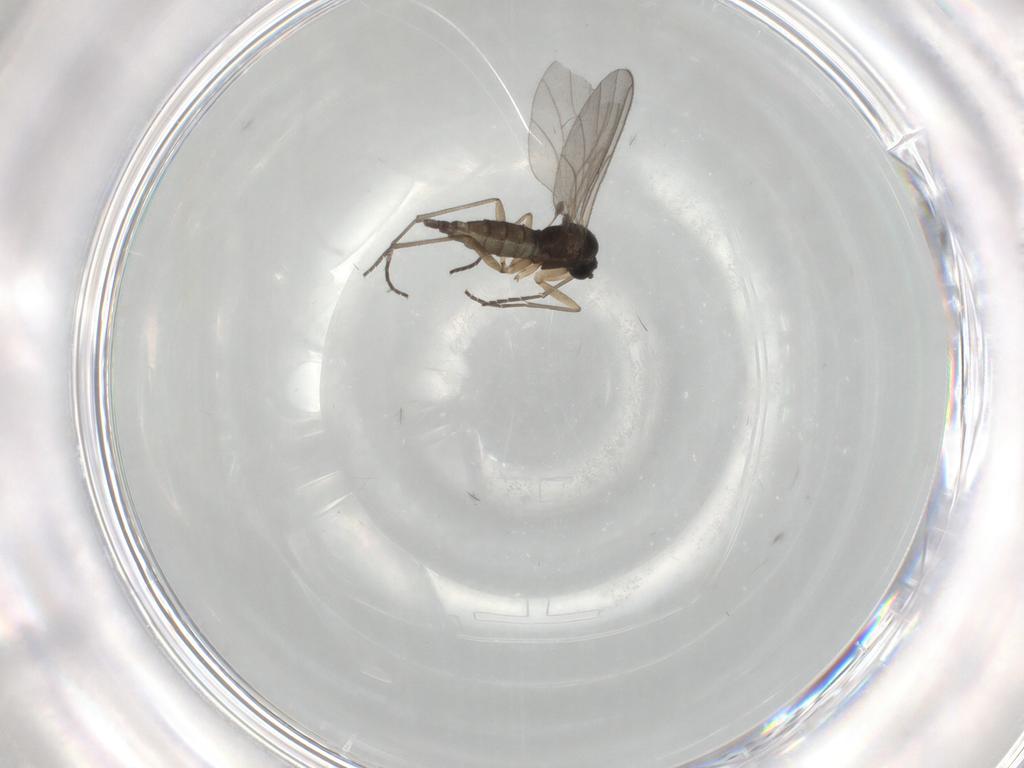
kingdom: Animalia
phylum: Arthropoda
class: Insecta
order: Diptera
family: Sciaridae
